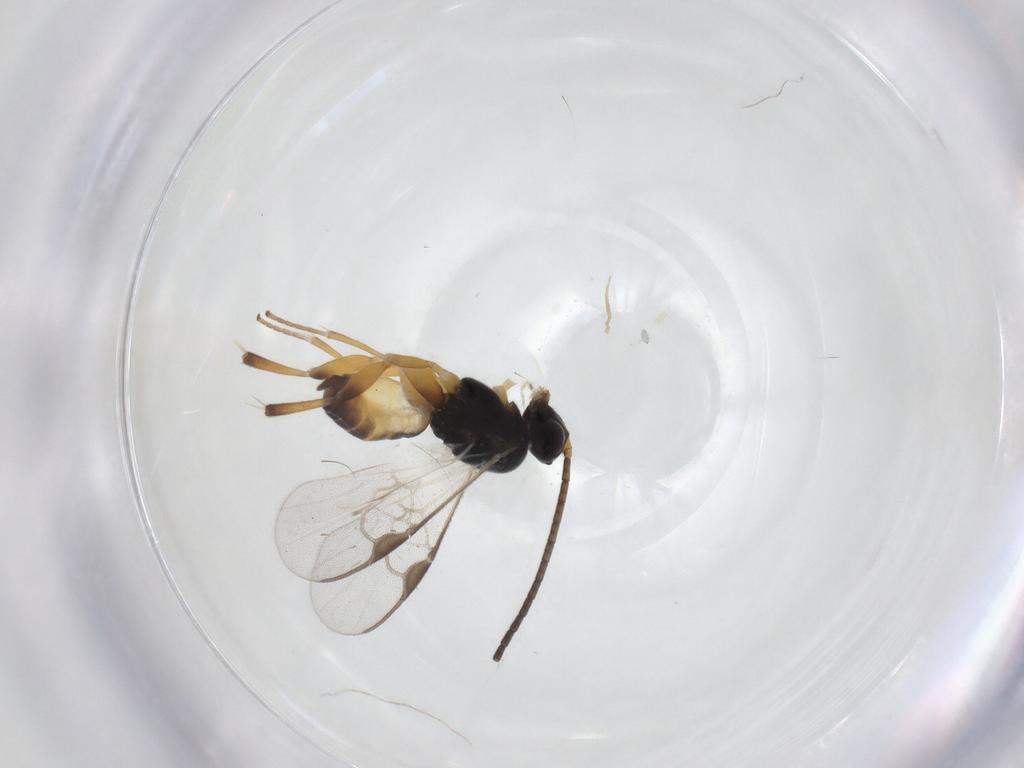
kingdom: Animalia
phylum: Arthropoda
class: Insecta
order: Hymenoptera
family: Braconidae
